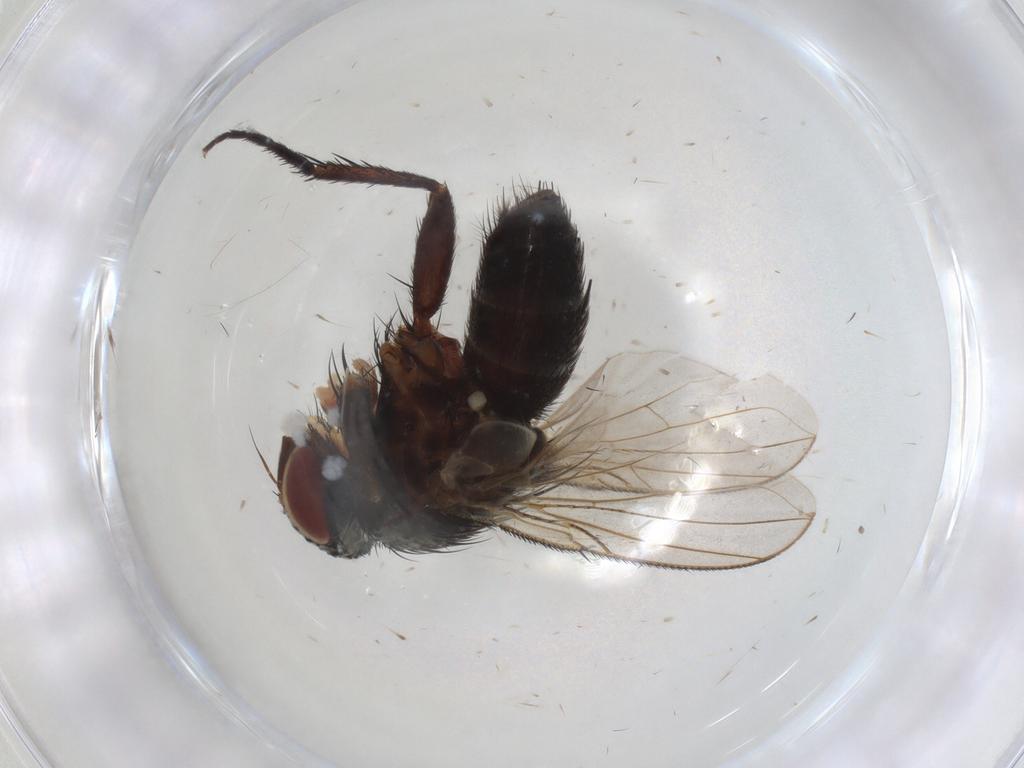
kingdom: Animalia
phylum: Arthropoda
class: Insecta
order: Diptera
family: Tachinidae
